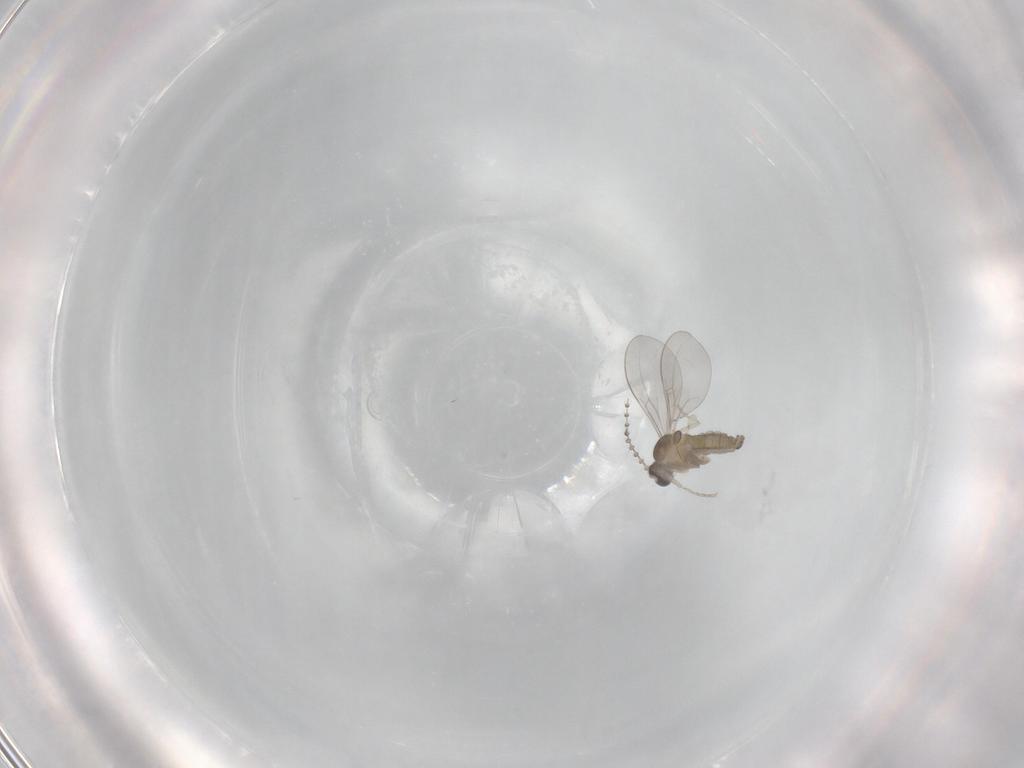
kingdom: Animalia
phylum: Arthropoda
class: Insecta
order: Diptera
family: Cecidomyiidae
